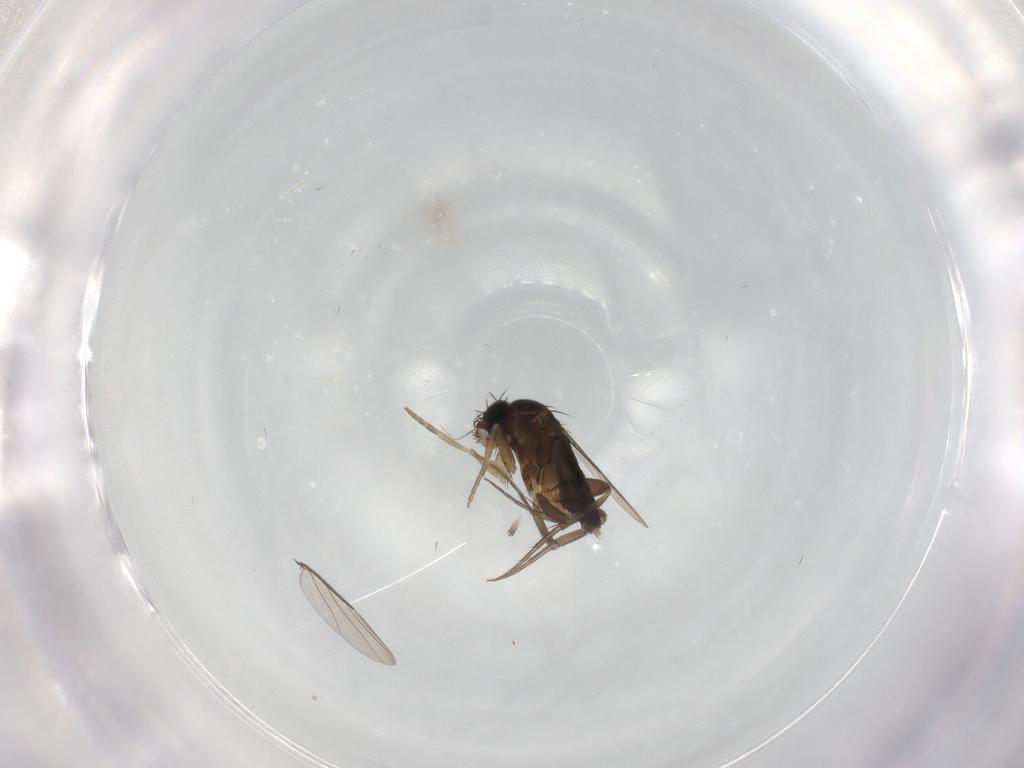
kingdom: Animalia
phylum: Arthropoda
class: Insecta
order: Diptera
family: Phoridae
